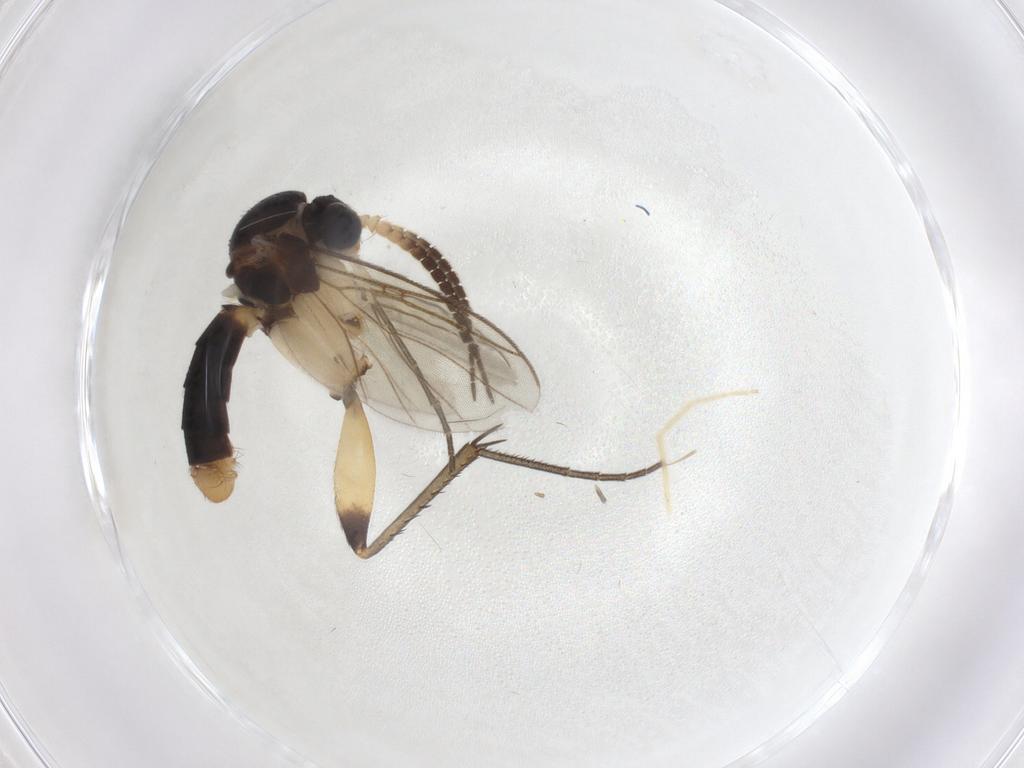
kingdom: Animalia
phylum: Arthropoda
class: Insecta
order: Diptera
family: Mycetophilidae
